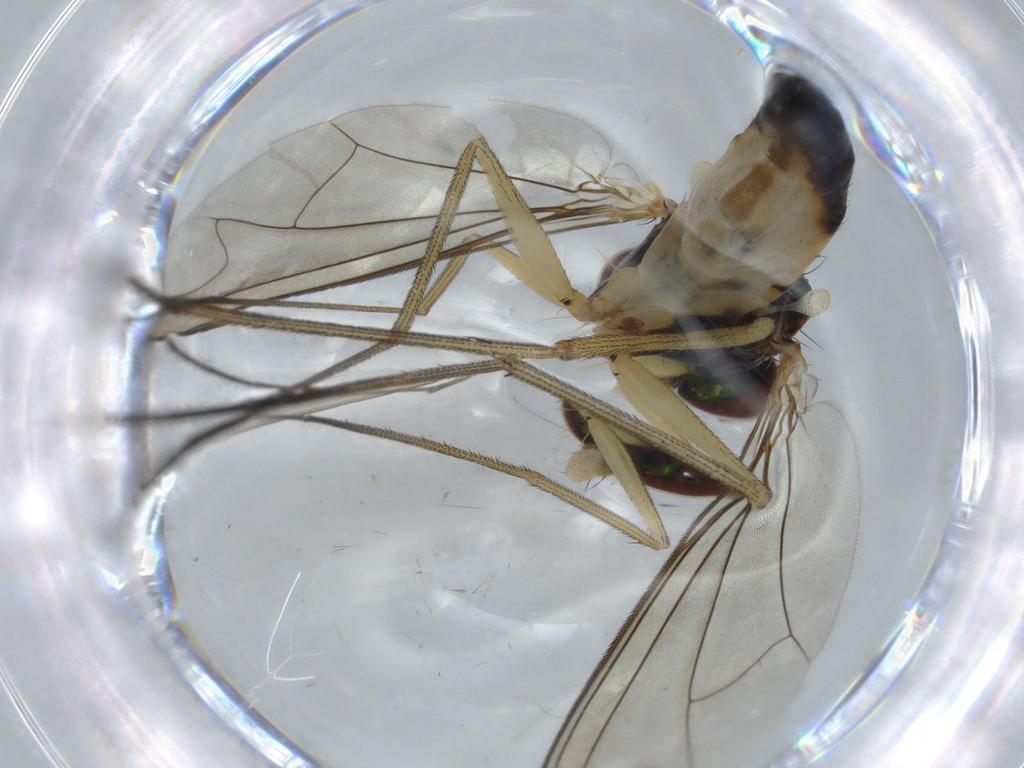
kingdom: Animalia
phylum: Arthropoda
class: Insecta
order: Diptera
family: Dolichopodidae
